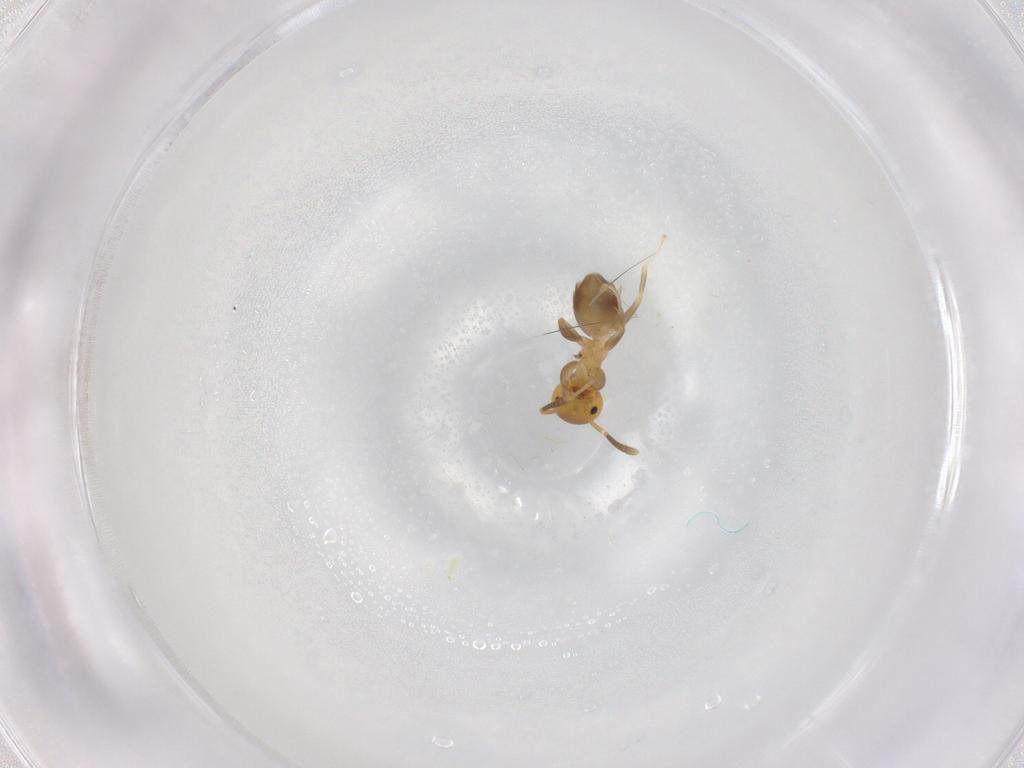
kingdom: Animalia
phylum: Arthropoda
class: Insecta
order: Hymenoptera
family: Formicidae
